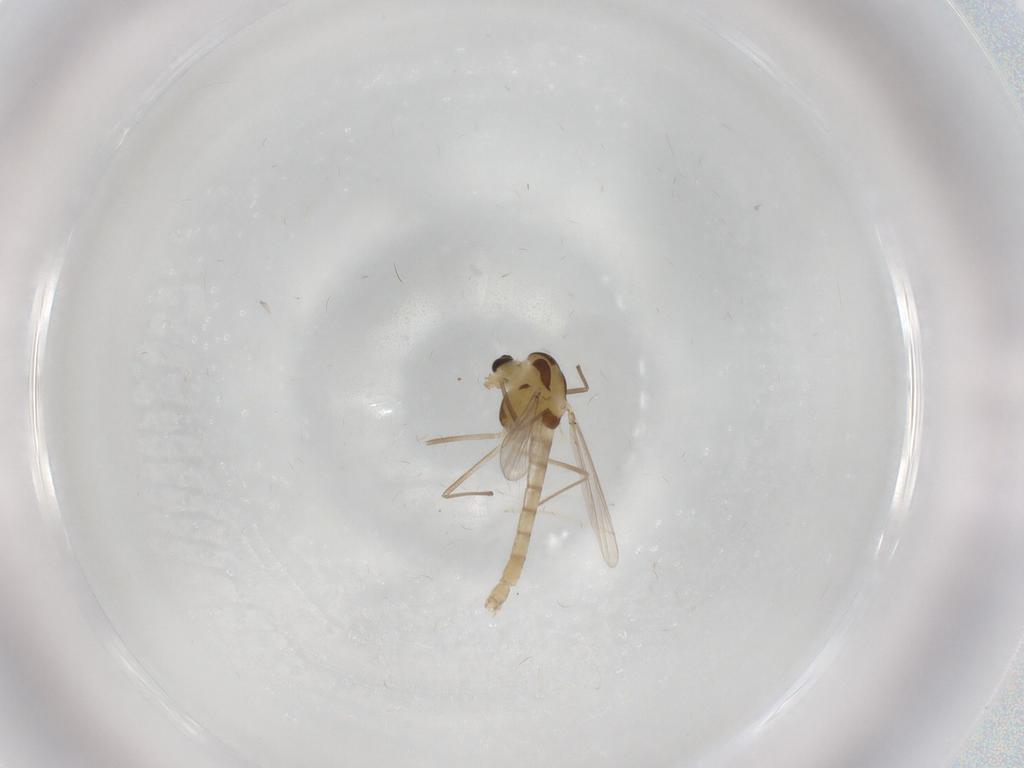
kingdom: Animalia
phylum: Arthropoda
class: Insecta
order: Diptera
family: Chironomidae
